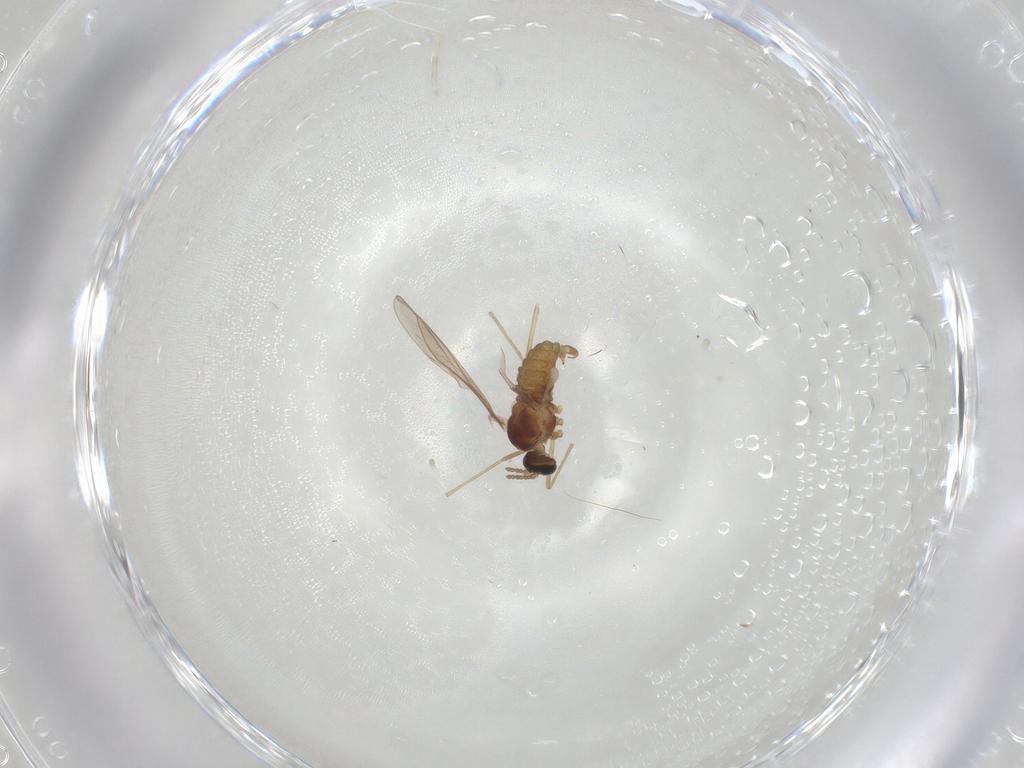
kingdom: Animalia
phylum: Arthropoda
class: Insecta
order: Diptera
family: Cecidomyiidae
